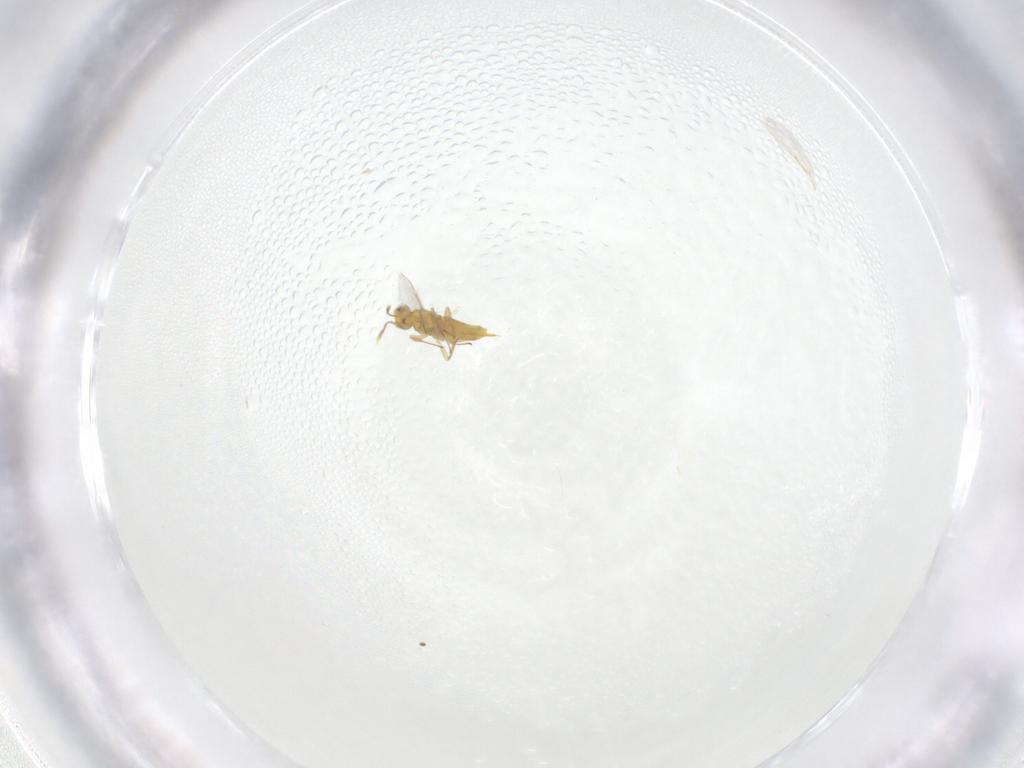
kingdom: Animalia
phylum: Arthropoda
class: Insecta
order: Hymenoptera
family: Aphelinidae
